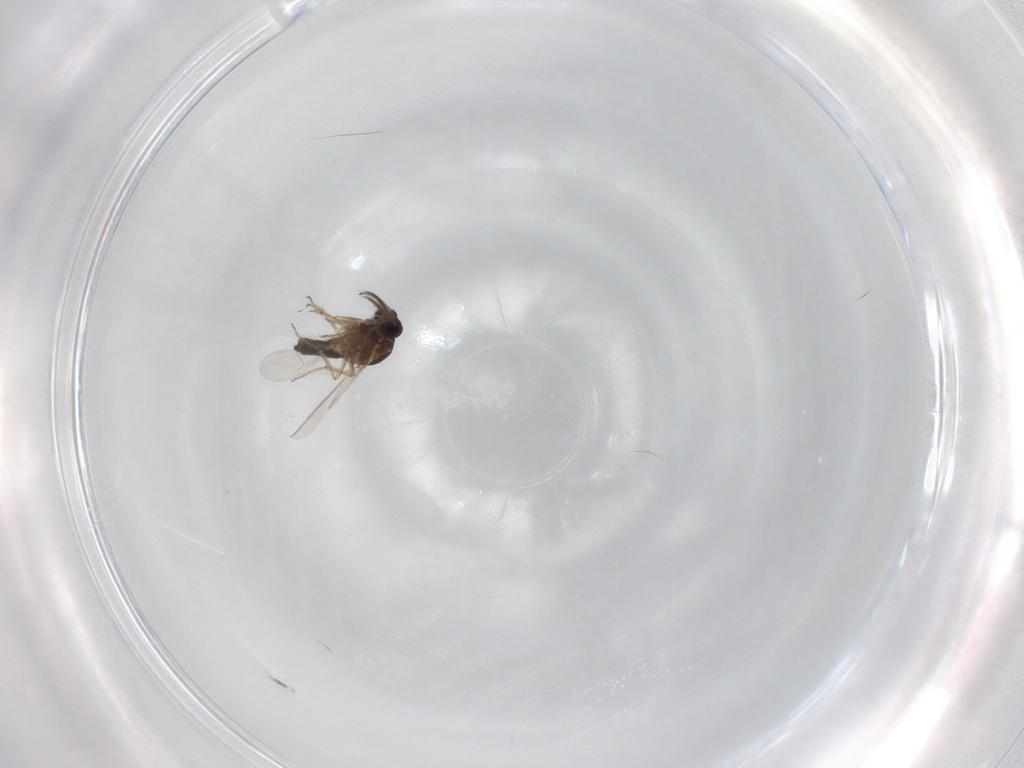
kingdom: Animalia
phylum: Arthropoda
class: Insecta
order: Diptera
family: Ceratopogonidae
